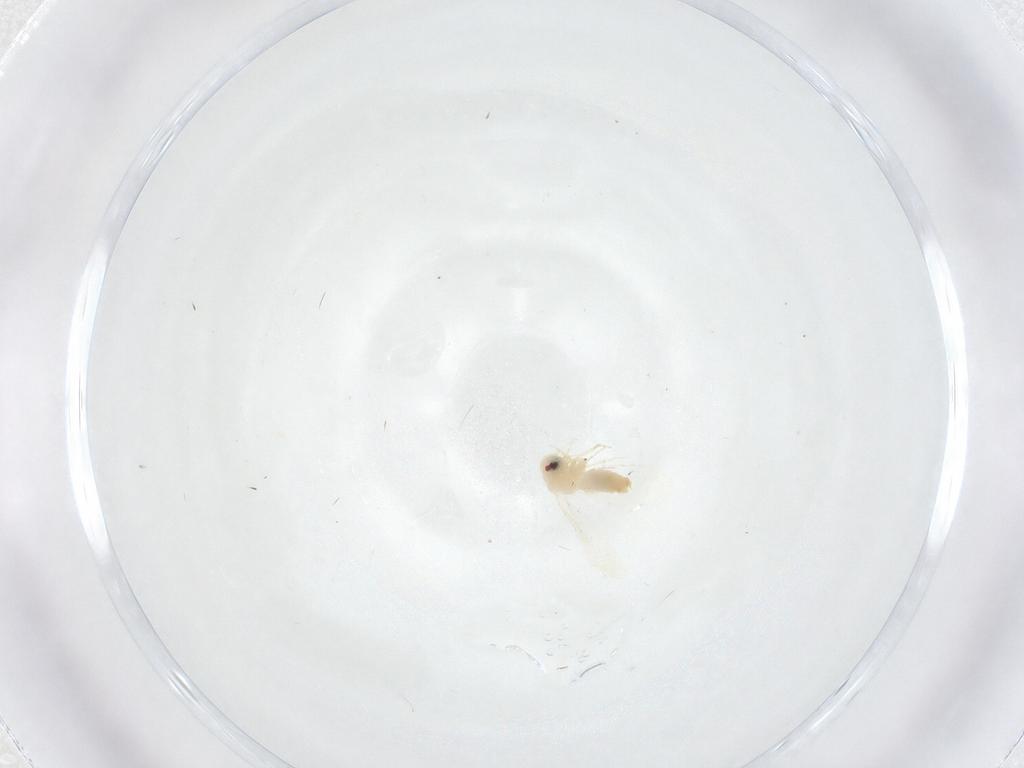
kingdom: Animalia
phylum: Arthropoda
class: Insecta
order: Hemiptera
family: Aleyrodidae
